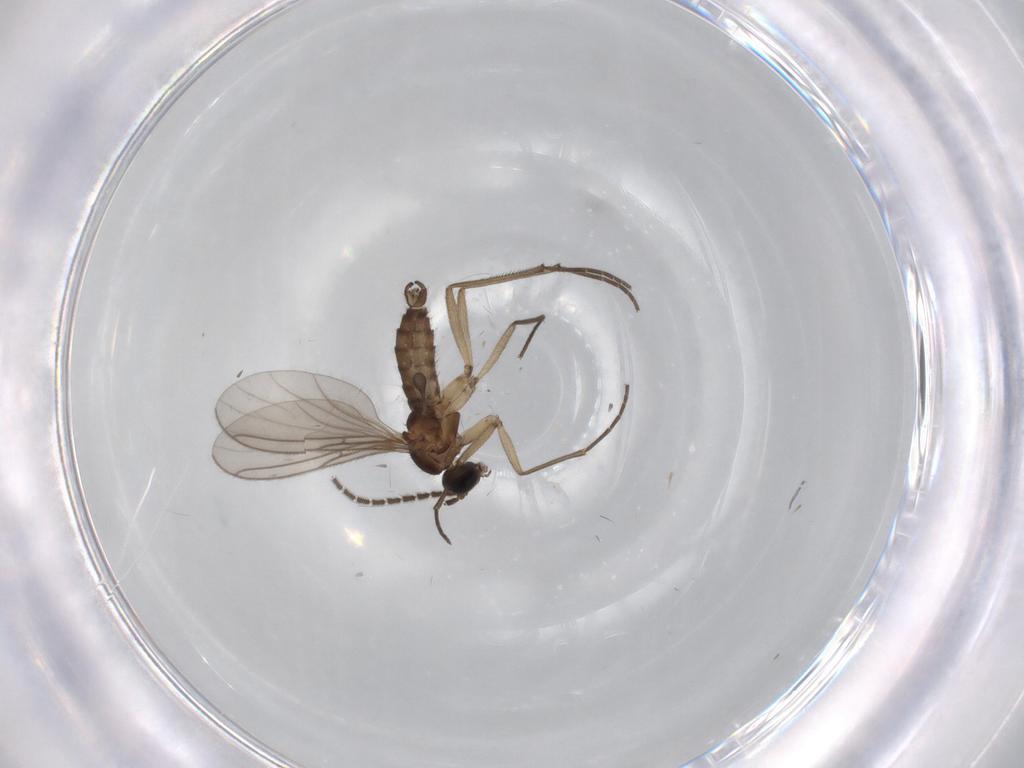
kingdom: Animalia
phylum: Arthropoda
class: Insecta
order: Diptera
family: Sciaridae
